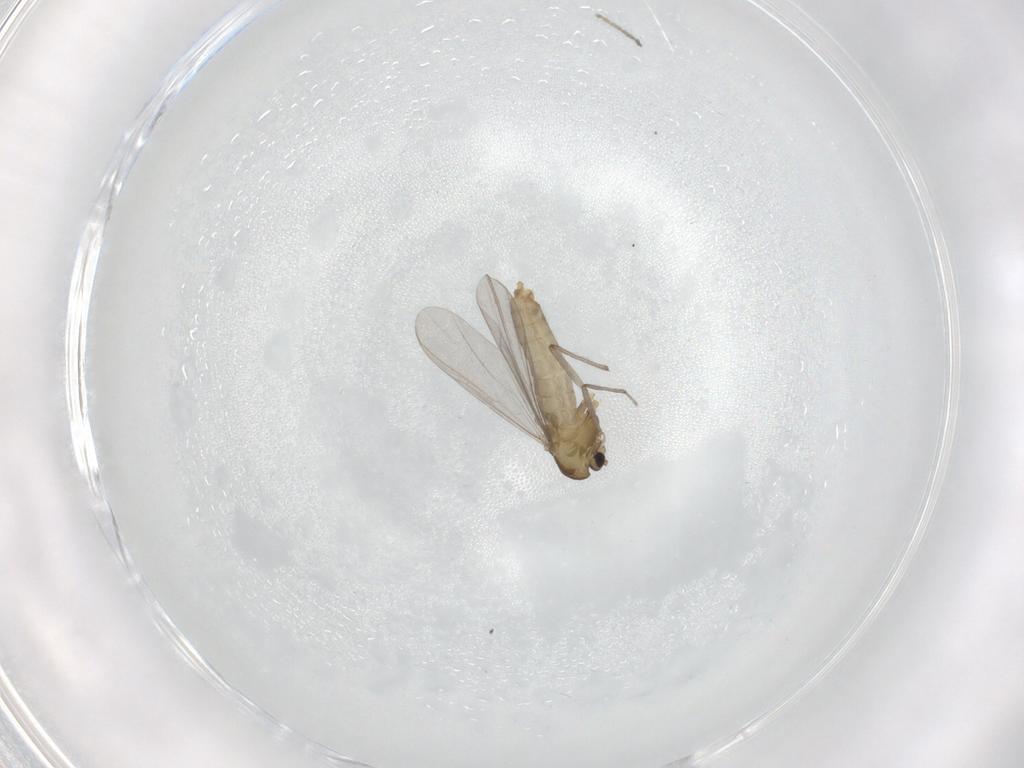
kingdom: Animalia
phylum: Arthropoda
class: Insecta
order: Diptera
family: Chironomidae
